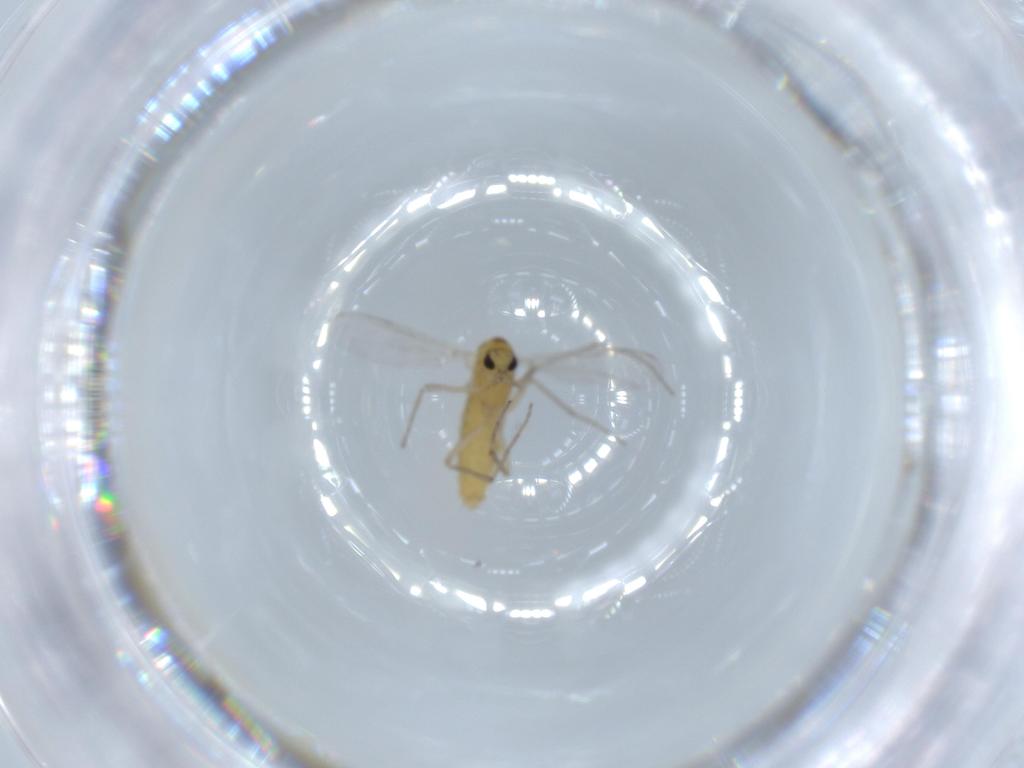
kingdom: Animalia
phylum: Arthropoda
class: Insecta
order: Diptera
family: Chironomidae
